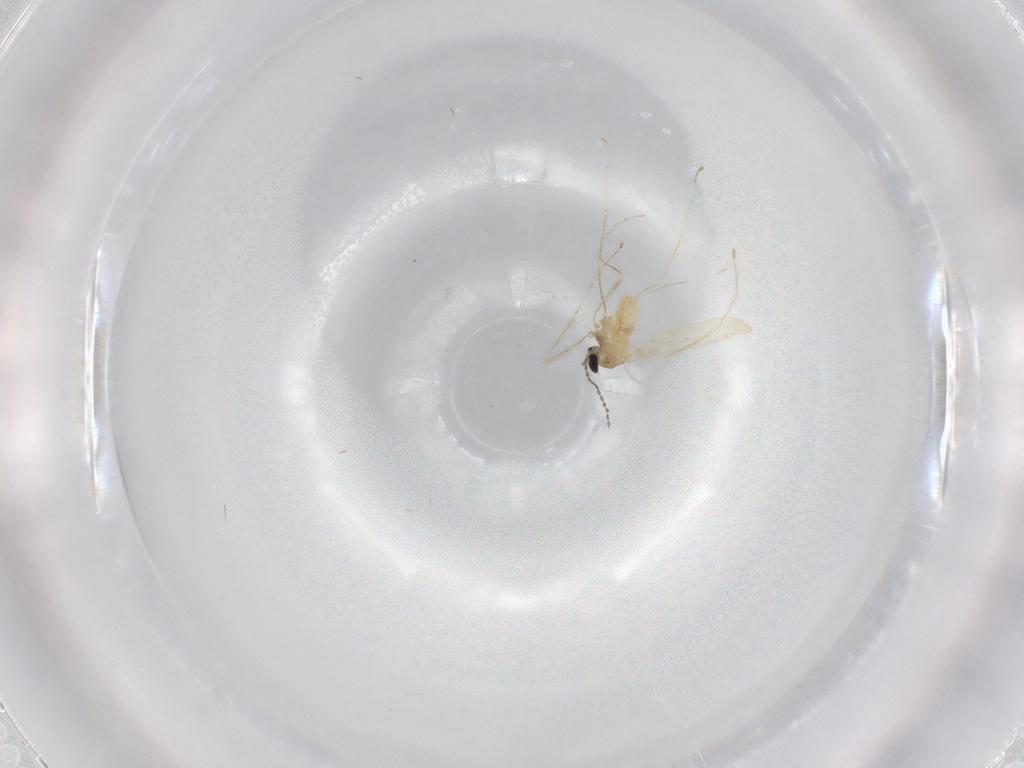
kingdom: Animalia
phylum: Arthropoda
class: Insecta
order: Diptera
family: Cecidomyiidae
